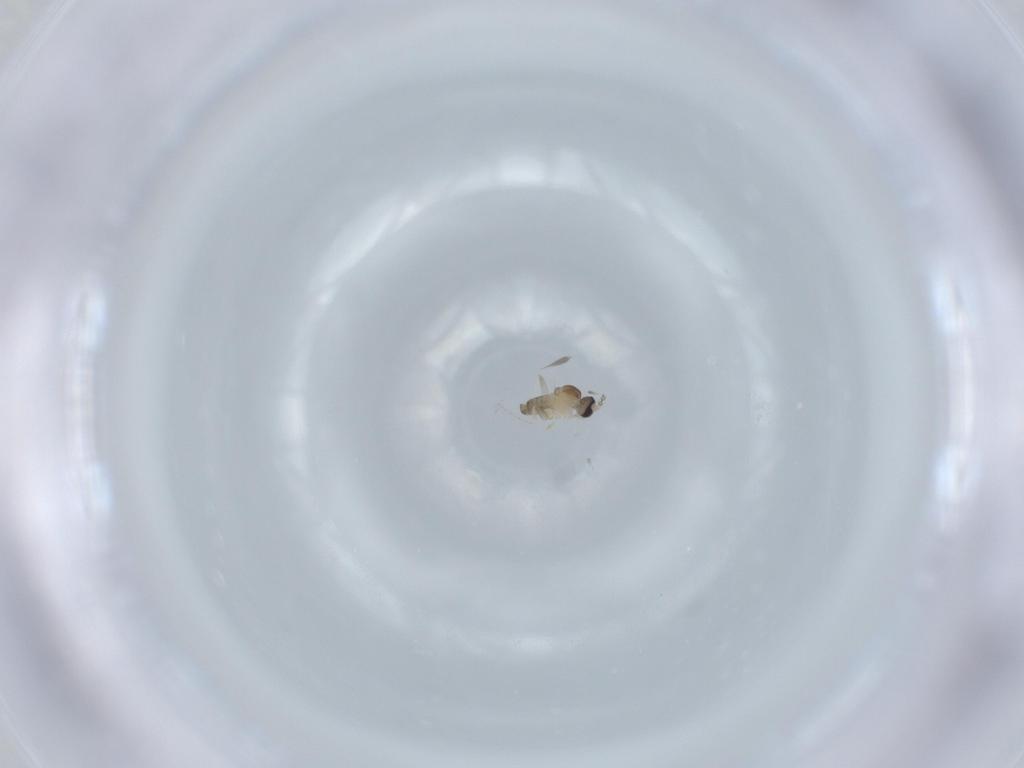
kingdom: Animalia
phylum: Arthropoda
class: Insecta
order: Diptera
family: Cecidomyiidae
